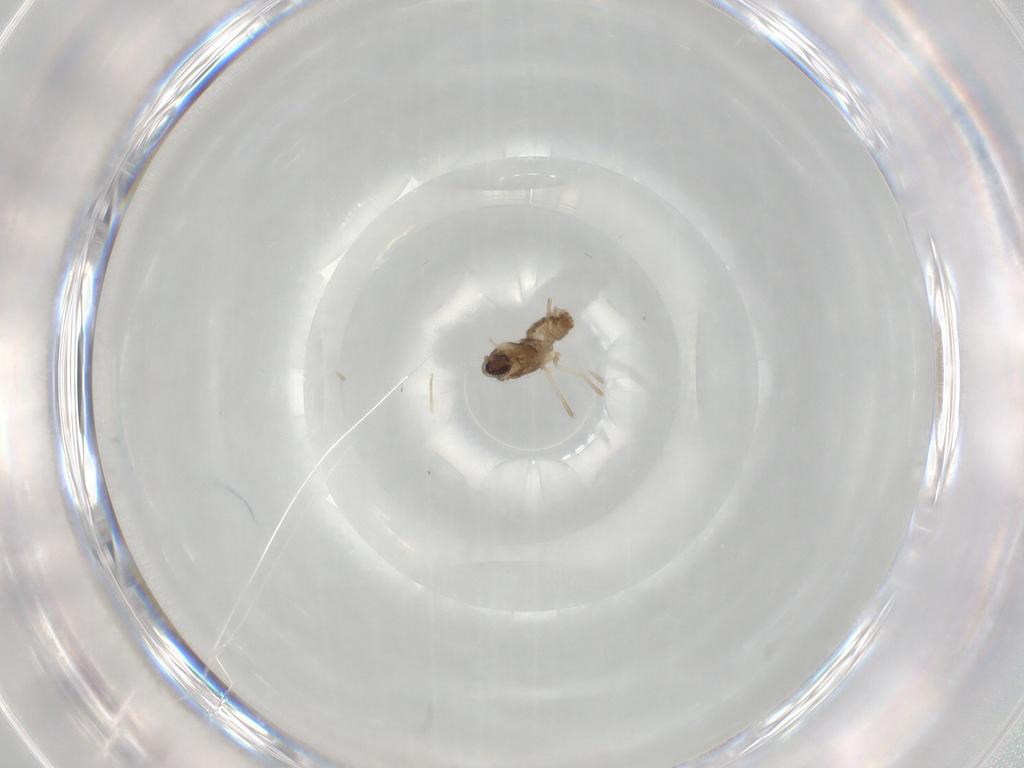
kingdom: Animalia
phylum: Arthropoda
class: Insecta
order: Diptera
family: Cecidomyiidae
